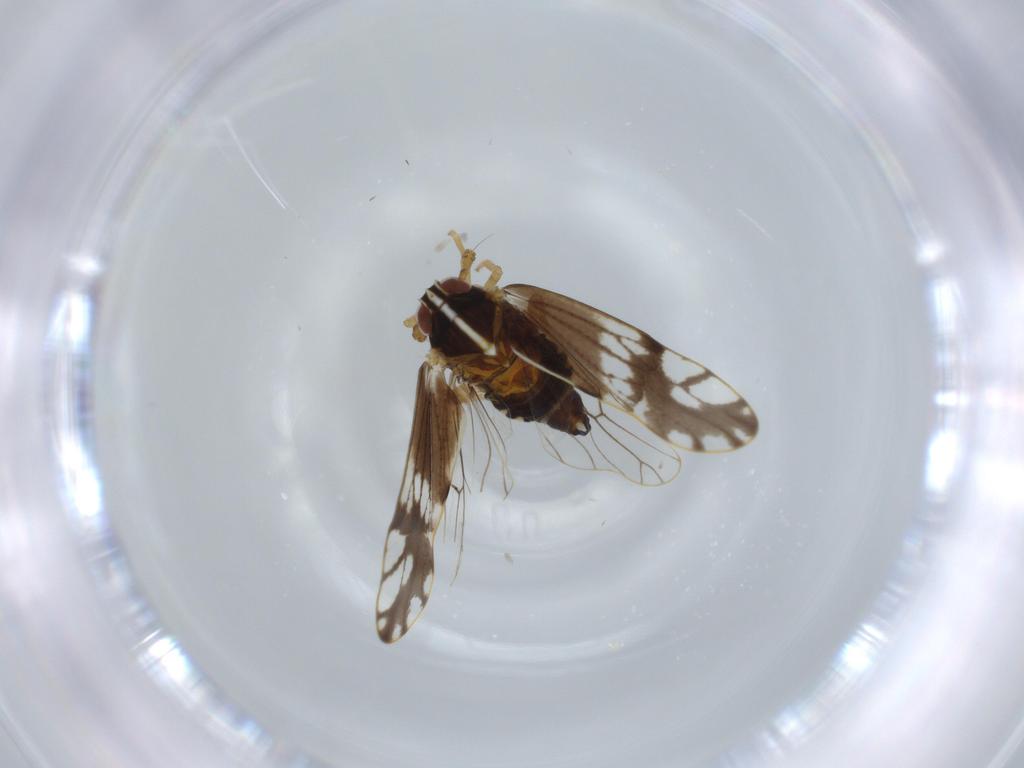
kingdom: Animalia
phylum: Arthropoda
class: Insecta
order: Hemiptera
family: Delphacidae
